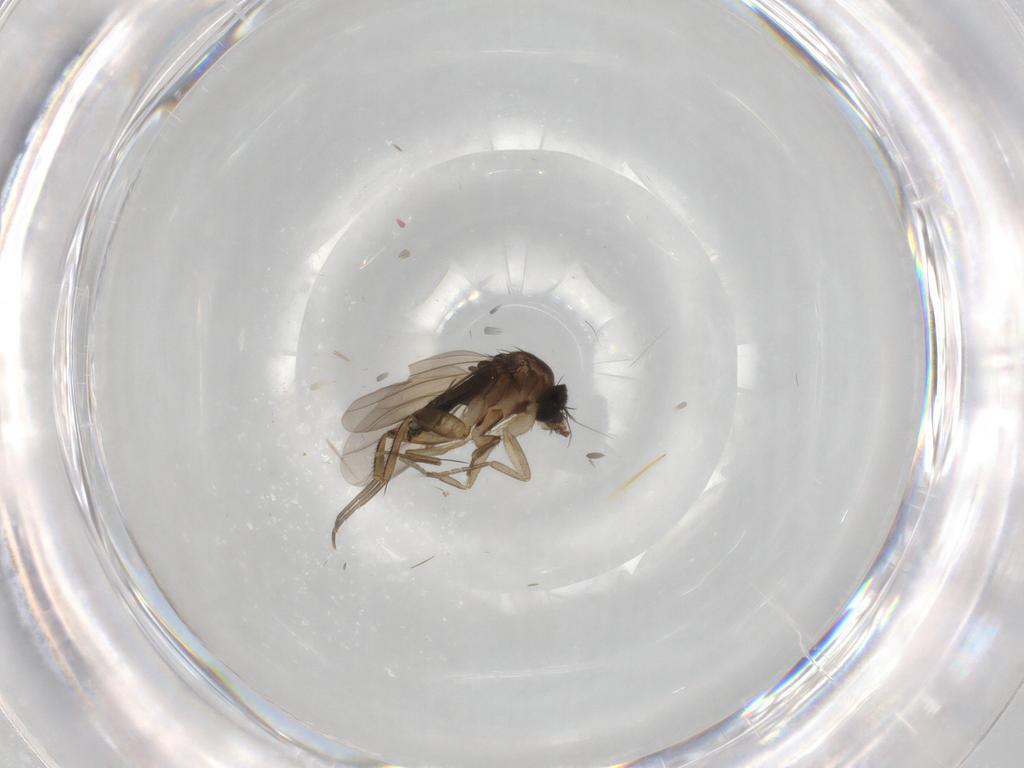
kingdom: Animalia
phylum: Arthropoda
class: Insecta
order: Diptera
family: Phoridae
